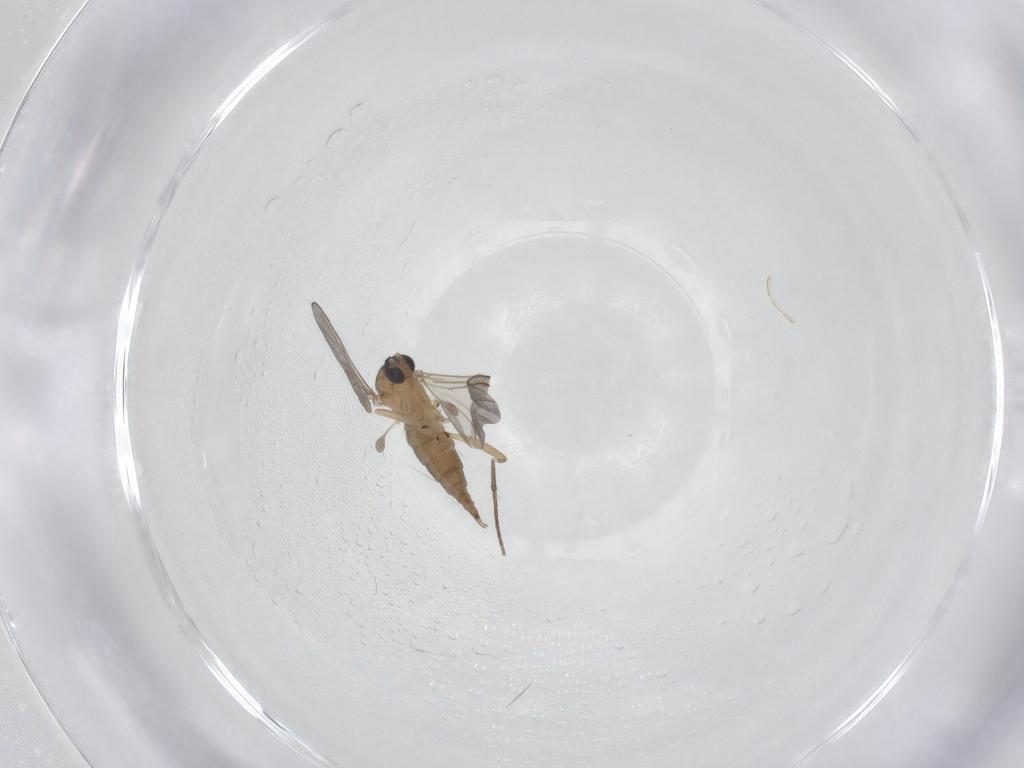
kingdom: Animalia
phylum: Arthropoda
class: Insecta
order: Diptera
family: Sciaridae
